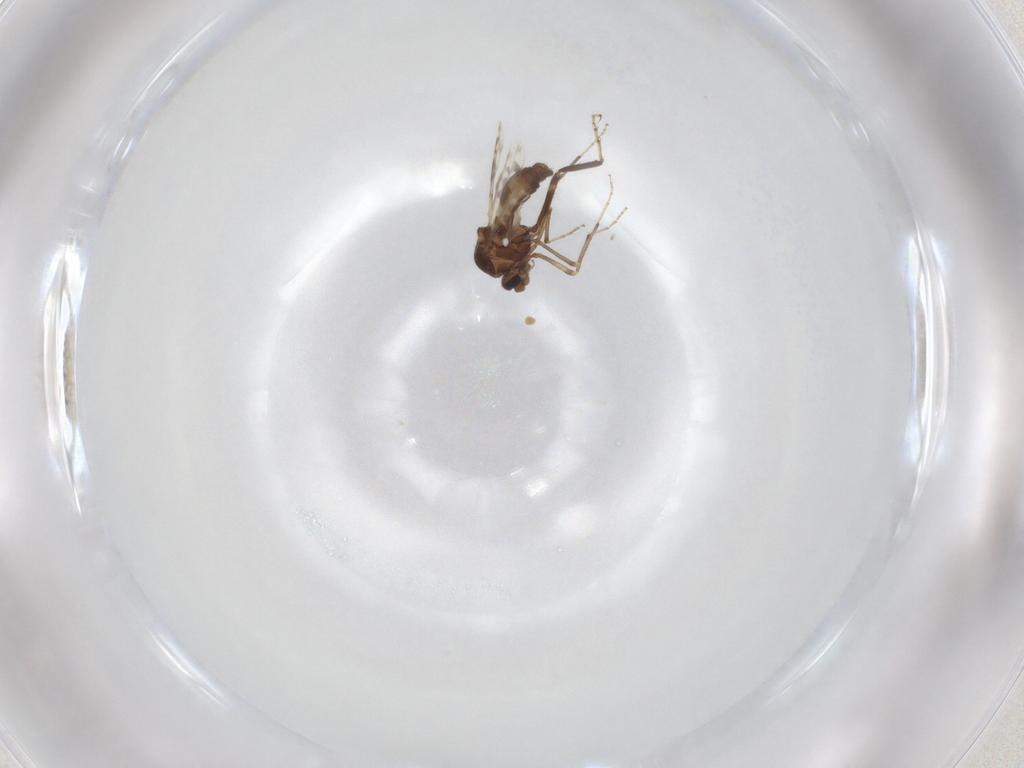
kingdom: Animalia
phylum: Arthropoda
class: Insecta
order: Diptera
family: Ceratopogonidae
